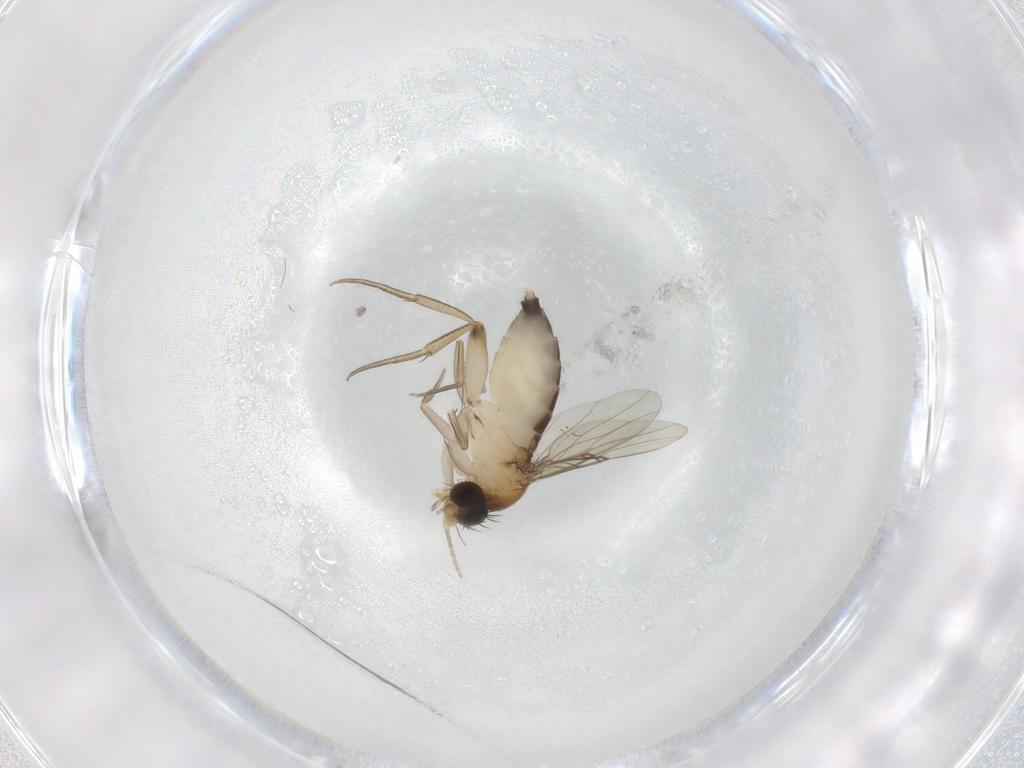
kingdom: Animalia
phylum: Arthropoda
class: Insecta
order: Diptera
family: Phoridae
